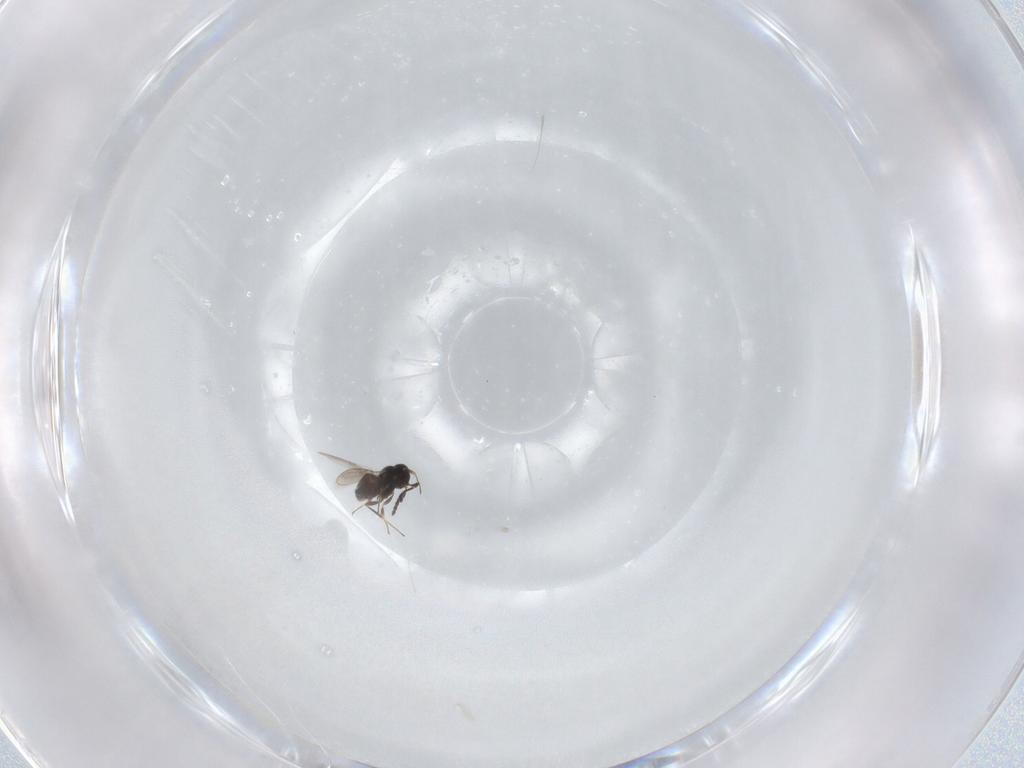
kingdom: Animalia
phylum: Arthropoda
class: Insecta
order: Hymenoptera
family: Scelionidae
